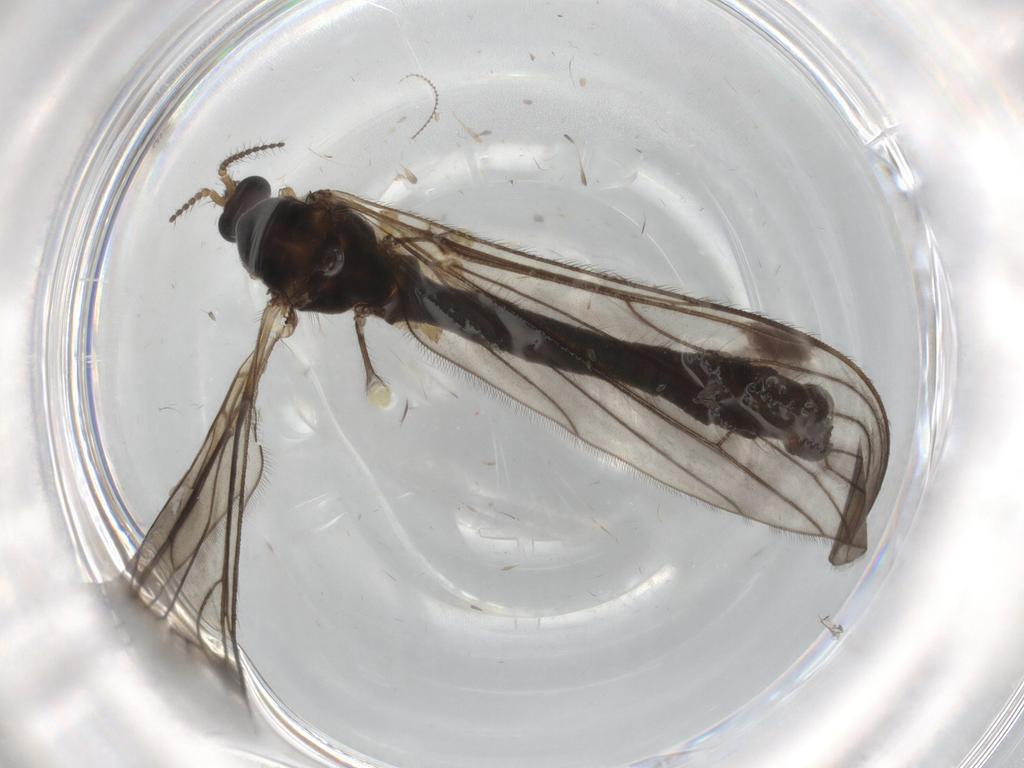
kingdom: Animalia
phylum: Arthropoda
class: Insecta
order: Diptera
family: Limoniidae
